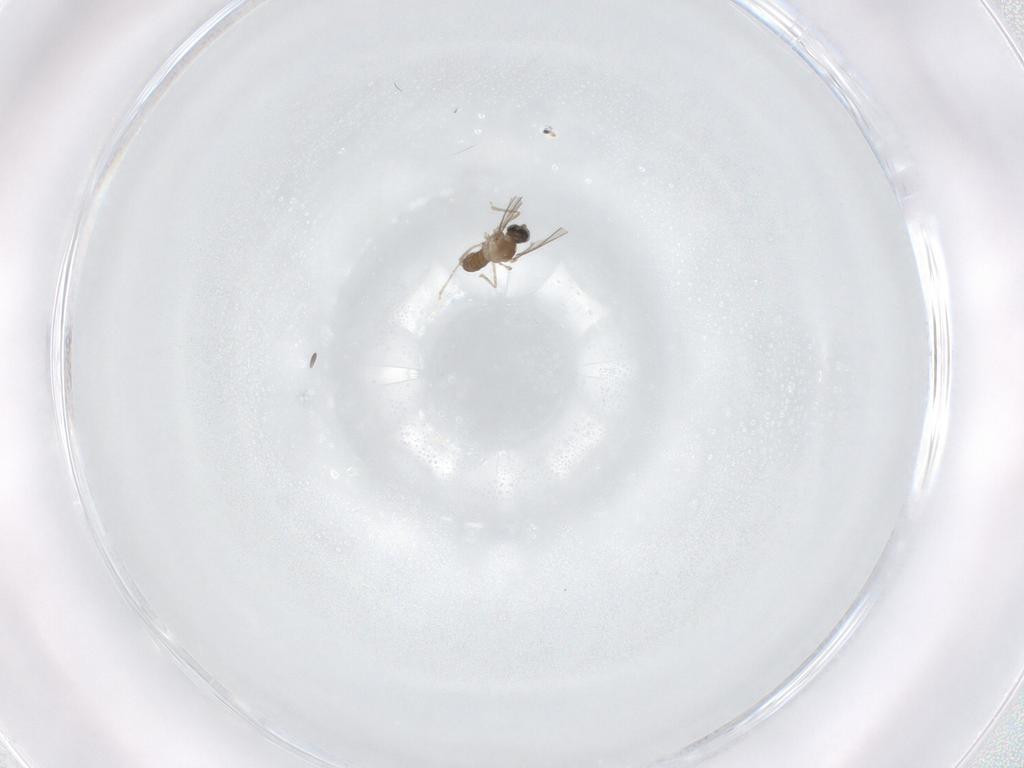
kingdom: Animalia
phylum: Arthropoda
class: Insecta
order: Diptera
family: Cecidomyiidae
